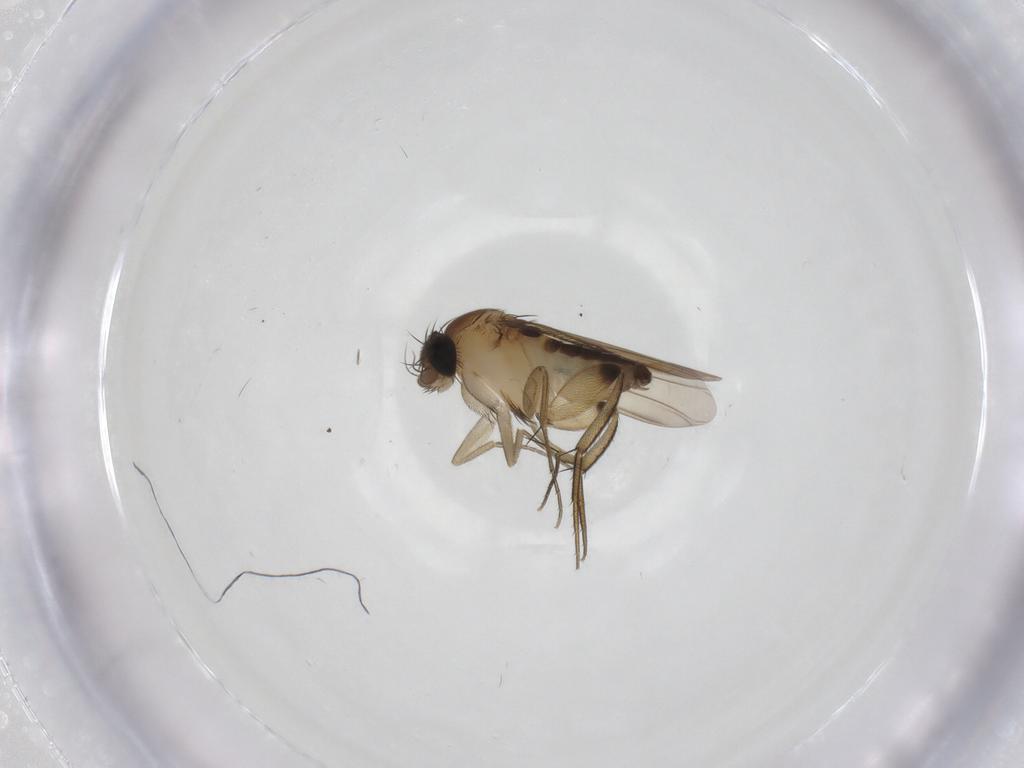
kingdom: Animalia
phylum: Arthropoda
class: Insecta
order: Diptera
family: Phoridae
